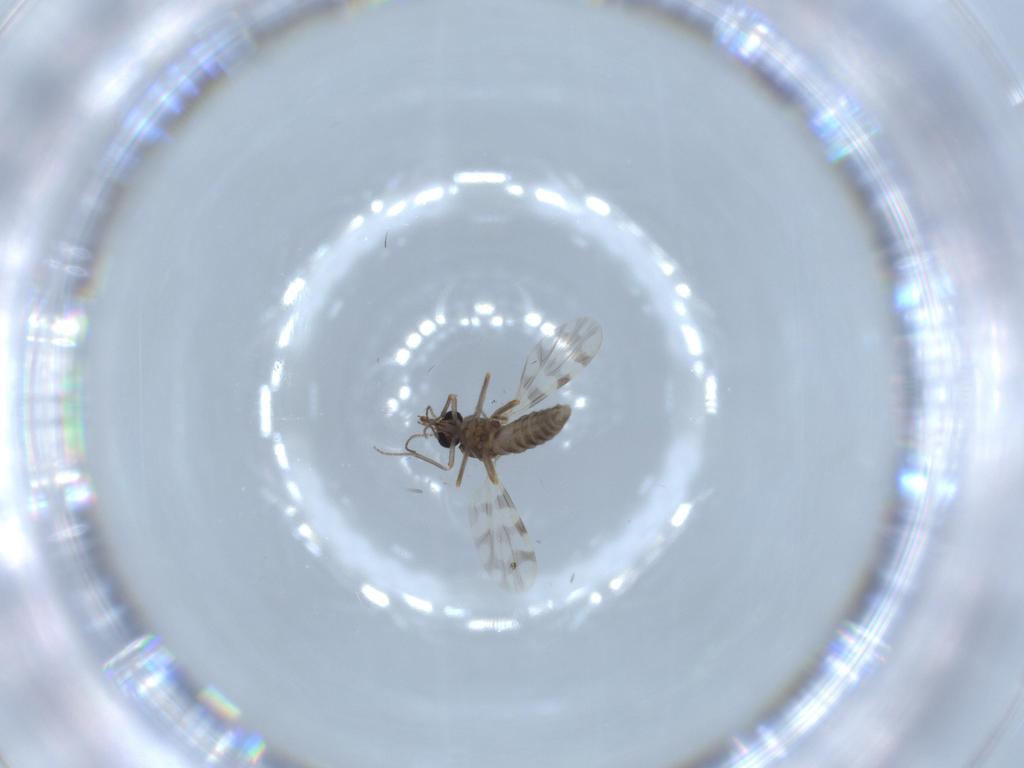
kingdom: Animalia
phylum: Arthropoda
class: Insecta
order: Diptera
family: Ceratopogonidae
